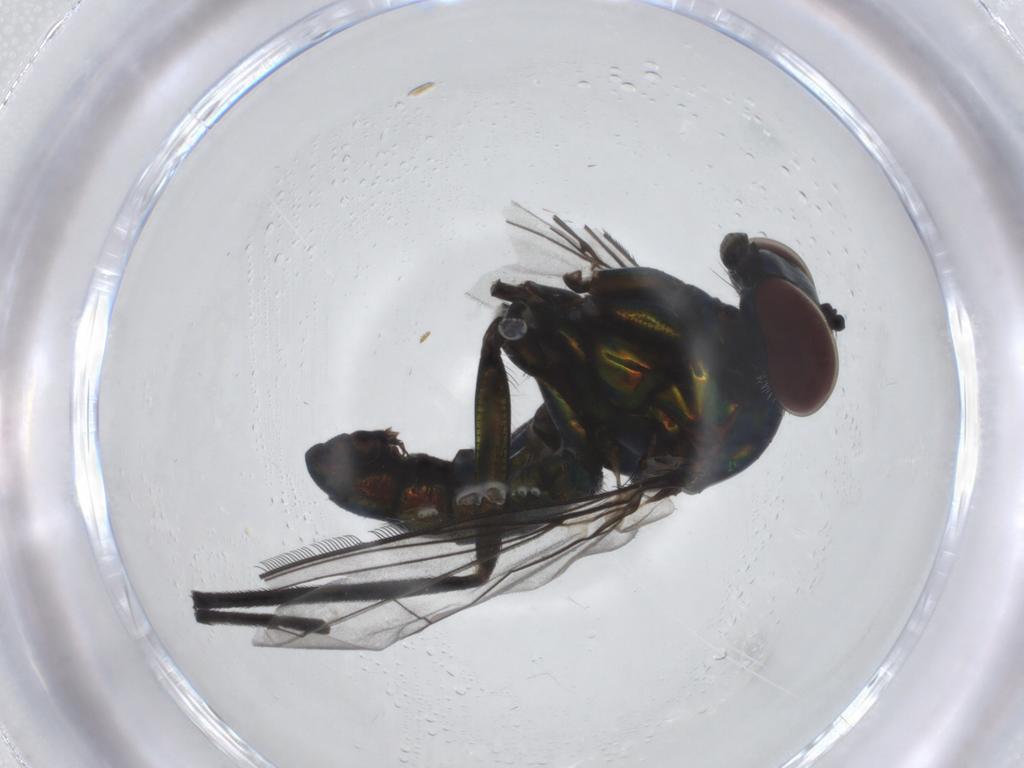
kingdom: Animalia
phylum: Arthropoda
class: Insecta
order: Diptera
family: Dolichopodidae
